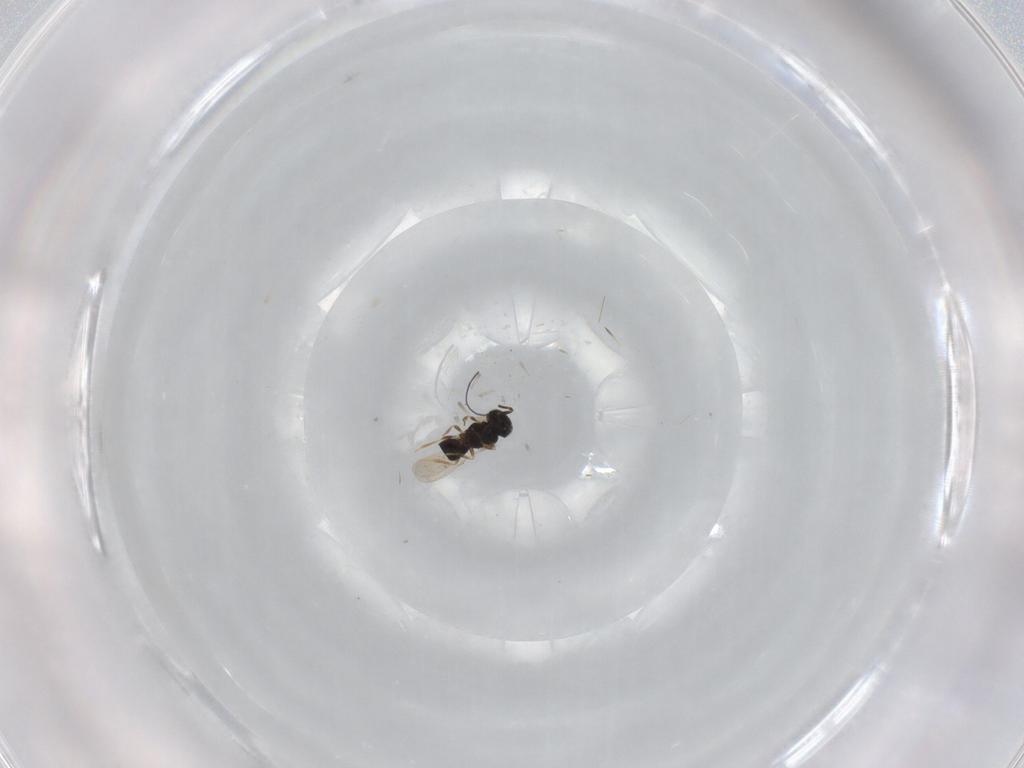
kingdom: Animalia
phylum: Arthropoda
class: Insecta
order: Hymenoptera
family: Scelionidae
